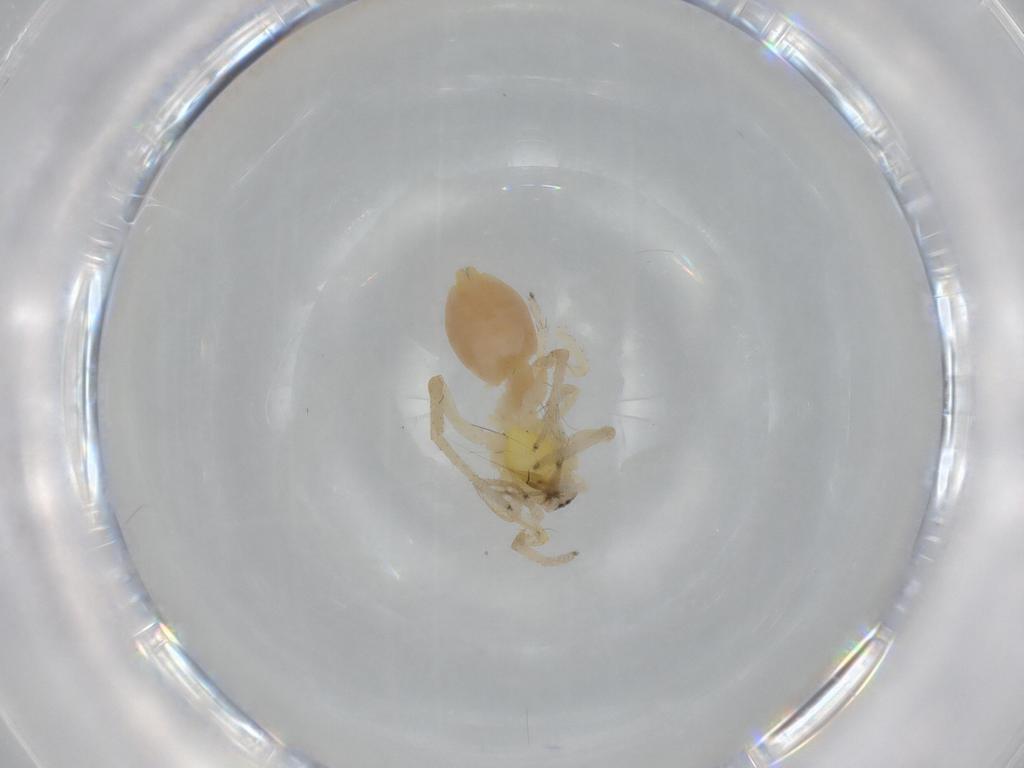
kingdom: Animalia
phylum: Arthropoda
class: Arachnida
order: Araneae
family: Anyphaenidae
